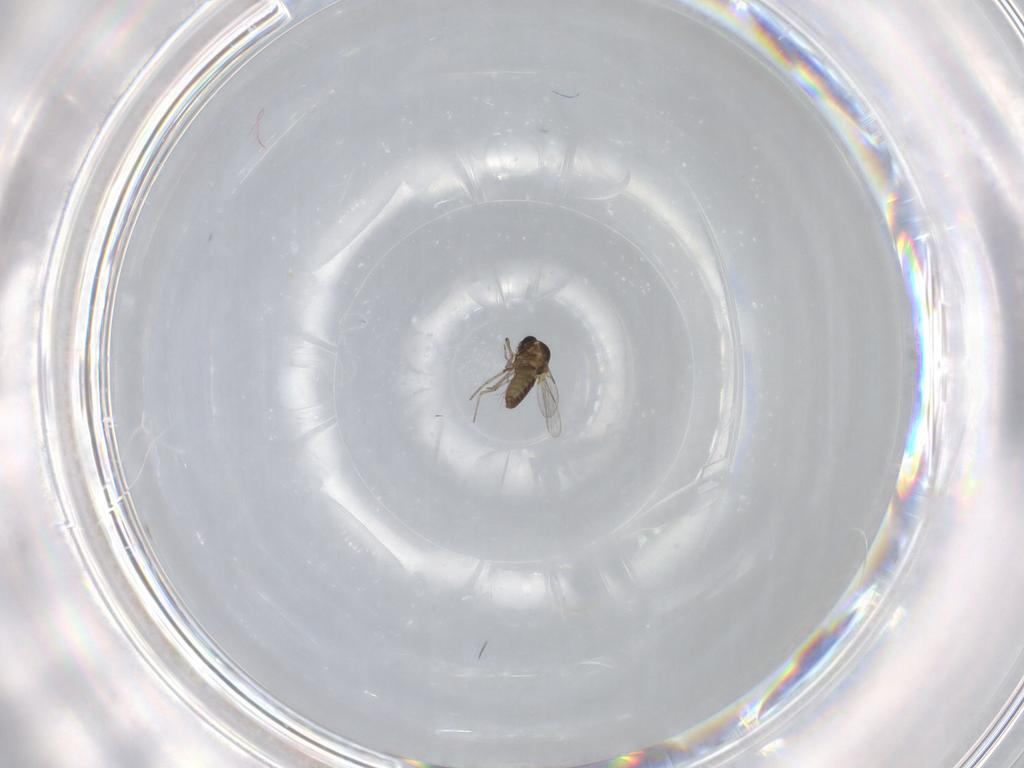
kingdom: Animalia
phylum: Arthropoda
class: Insecta
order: Diptera
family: Ceratopogonidae
